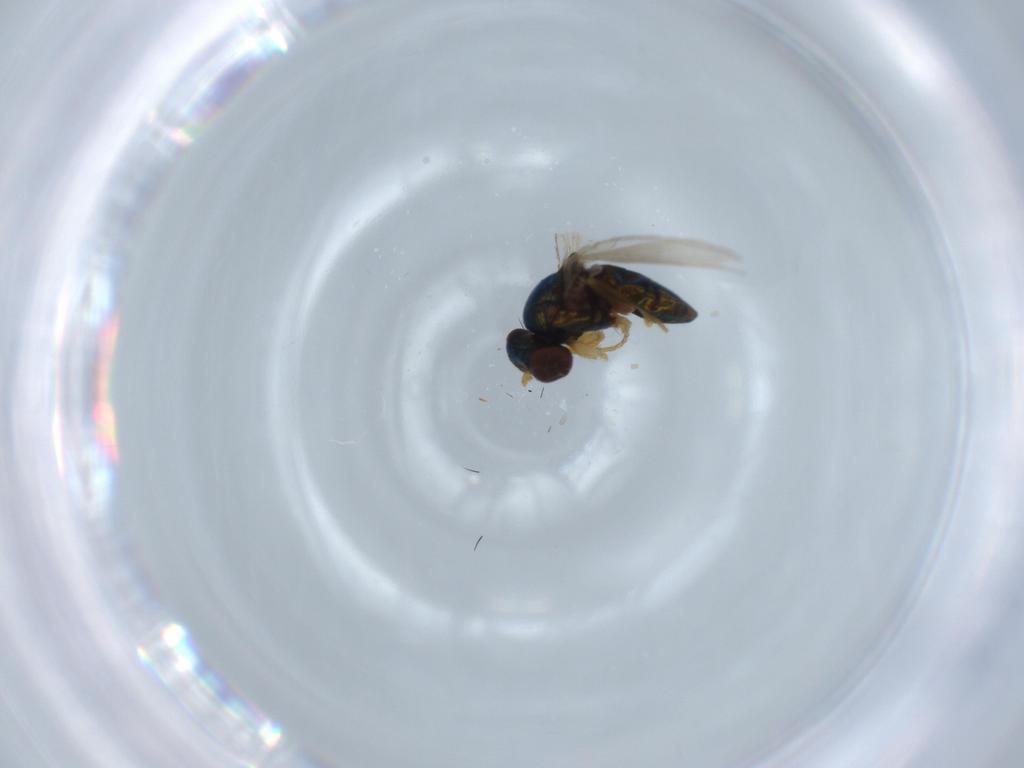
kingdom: Animalia
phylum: Arthropoda
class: Insecta
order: Diptera
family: Ephydridae
